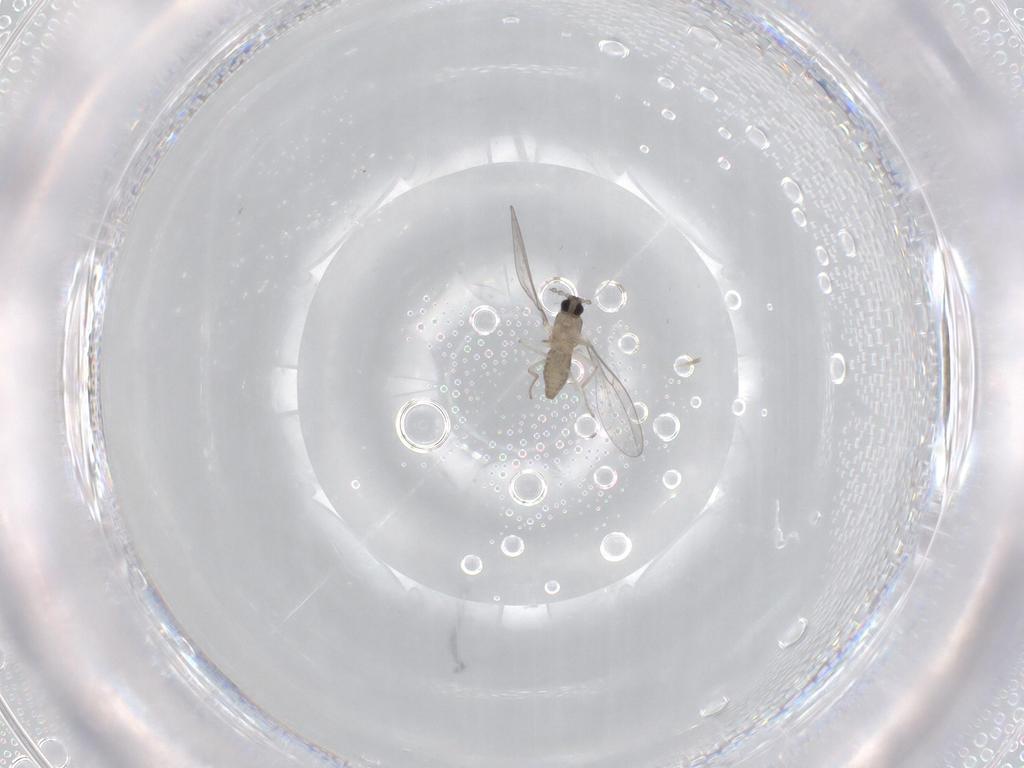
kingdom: Animalia
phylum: Arthropoda
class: Insecta
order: Diptera
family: Cecidomyiidae
